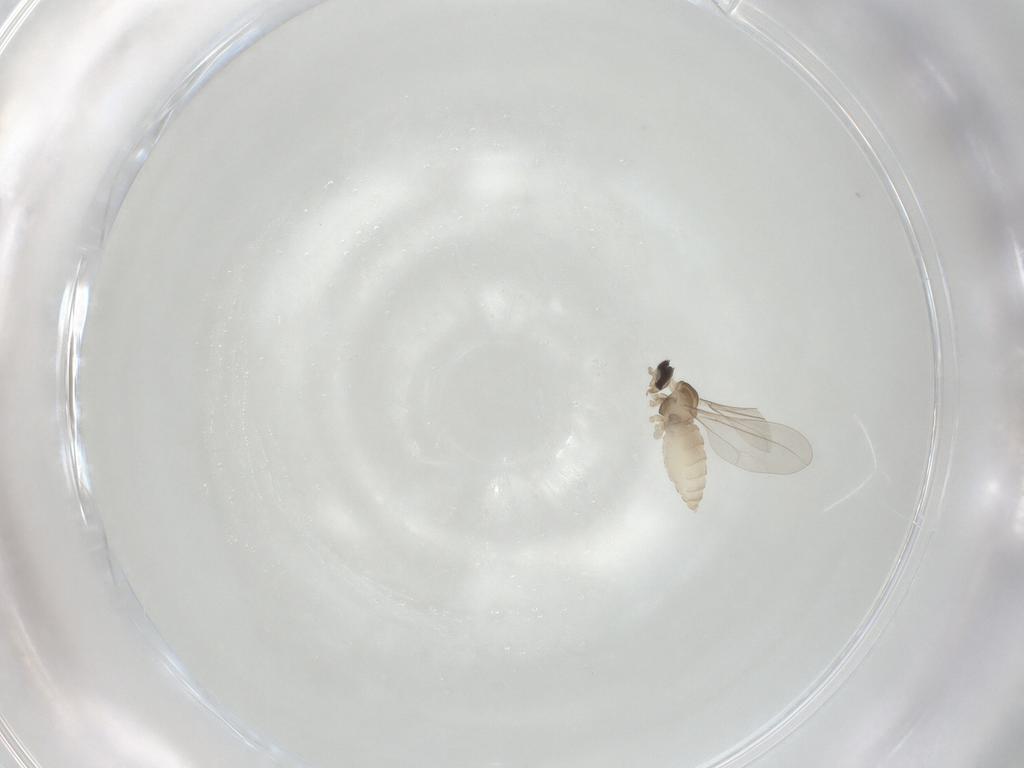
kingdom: Animalia
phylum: Arthropoda
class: Insecta
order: Diptera
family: Cecidomyiidae
